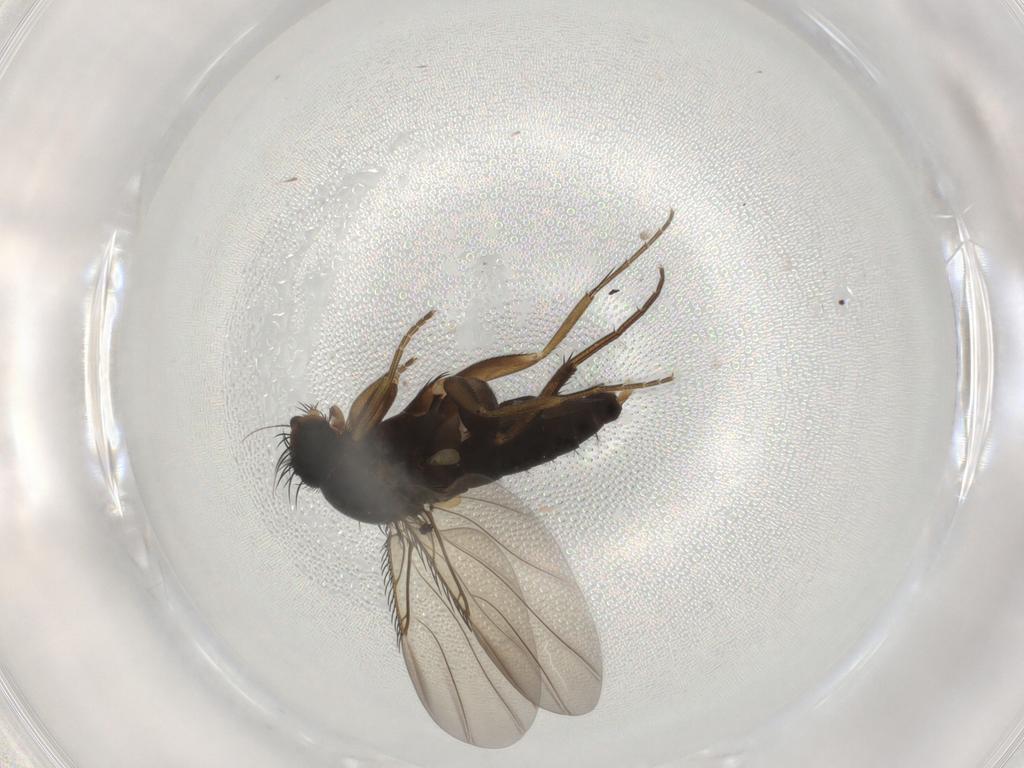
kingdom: Animalia
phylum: Arthropoda
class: Insecta
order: Diptera
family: Phoridae
